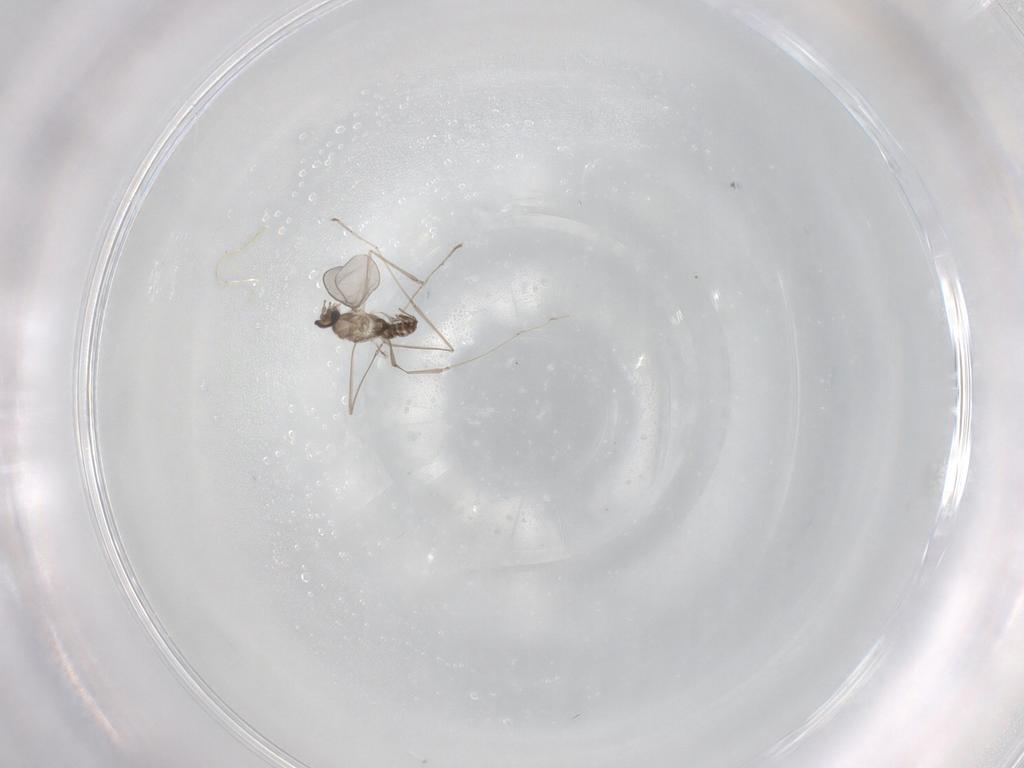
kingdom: Animalia
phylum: Arthropoda
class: Insecta
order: Diptera
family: Cecidomyiidae
